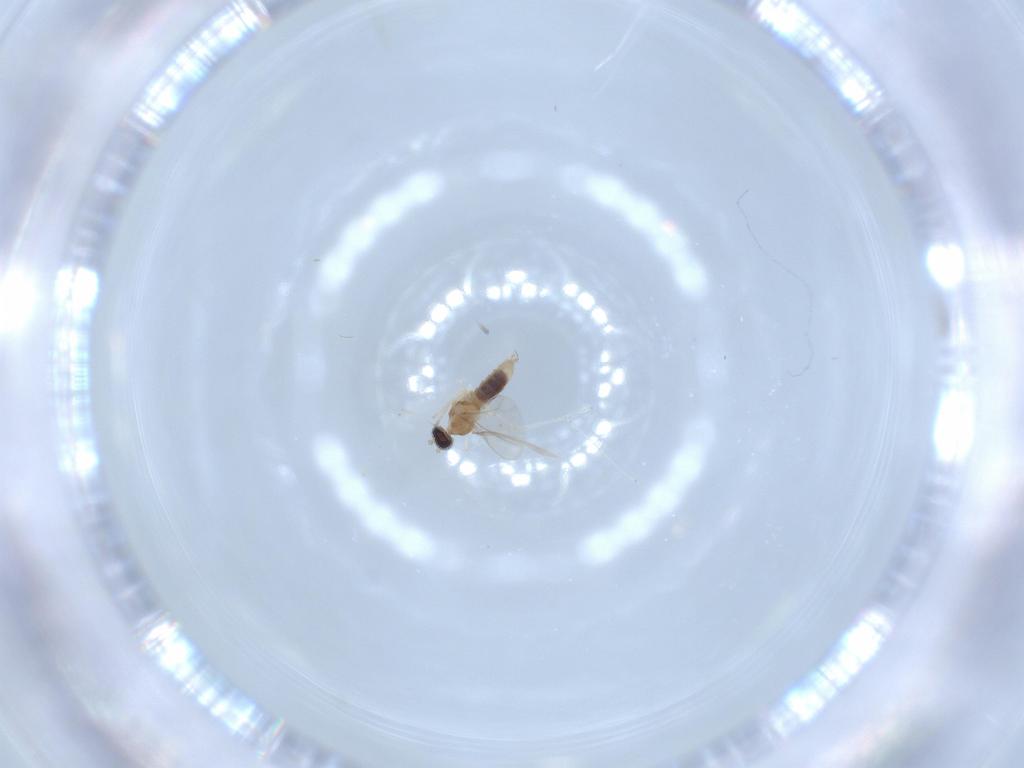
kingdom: Animalia
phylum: Arthropoda
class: Insecta
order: Diptera
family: Cecidomyiidae
